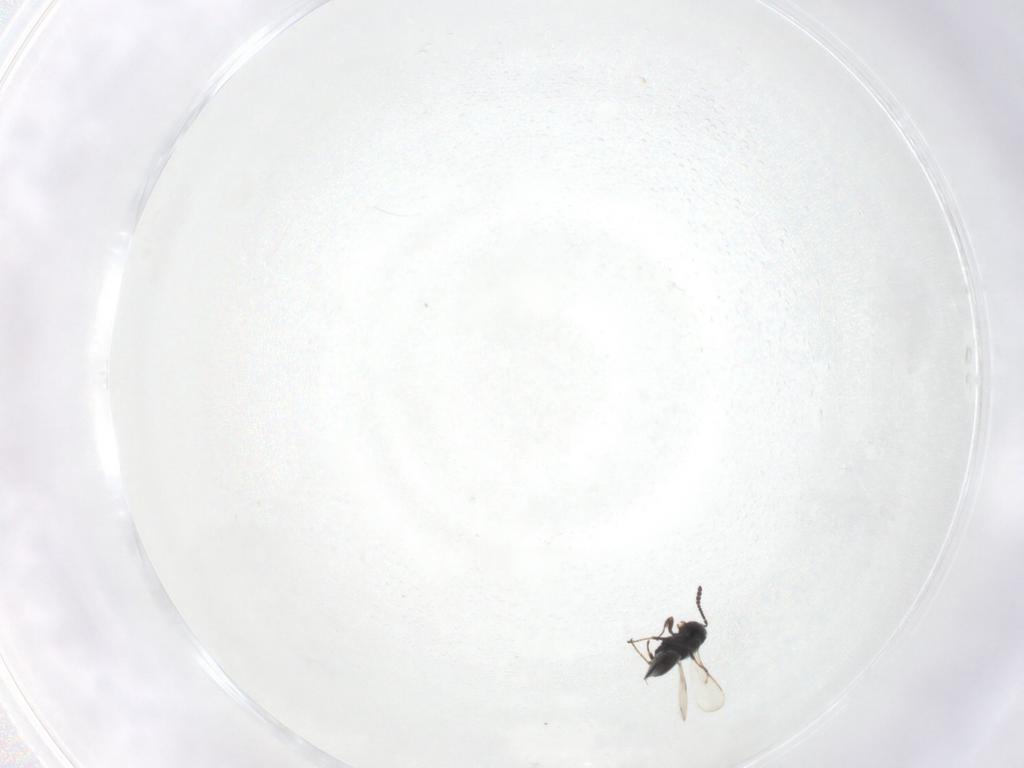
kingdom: Animalia
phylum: Arthropoda
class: Insecta
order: Hymenoptera
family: Scelionidae
